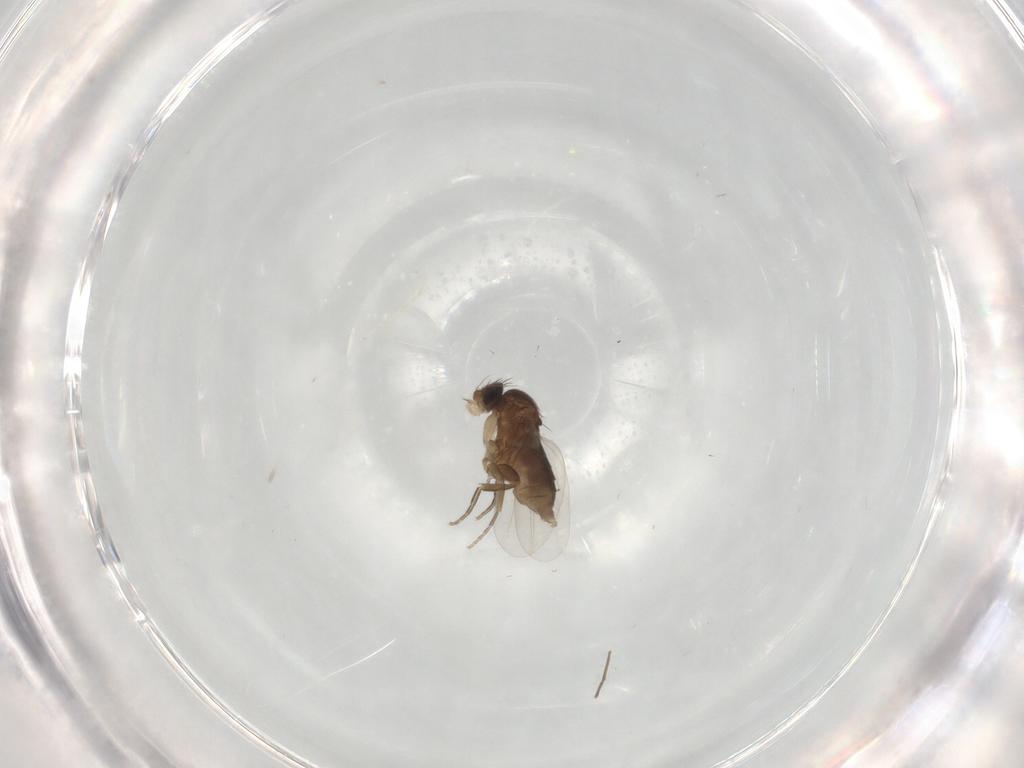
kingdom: Animalia
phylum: Arthropoda
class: Insecta
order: Diptera
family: Phoridae
